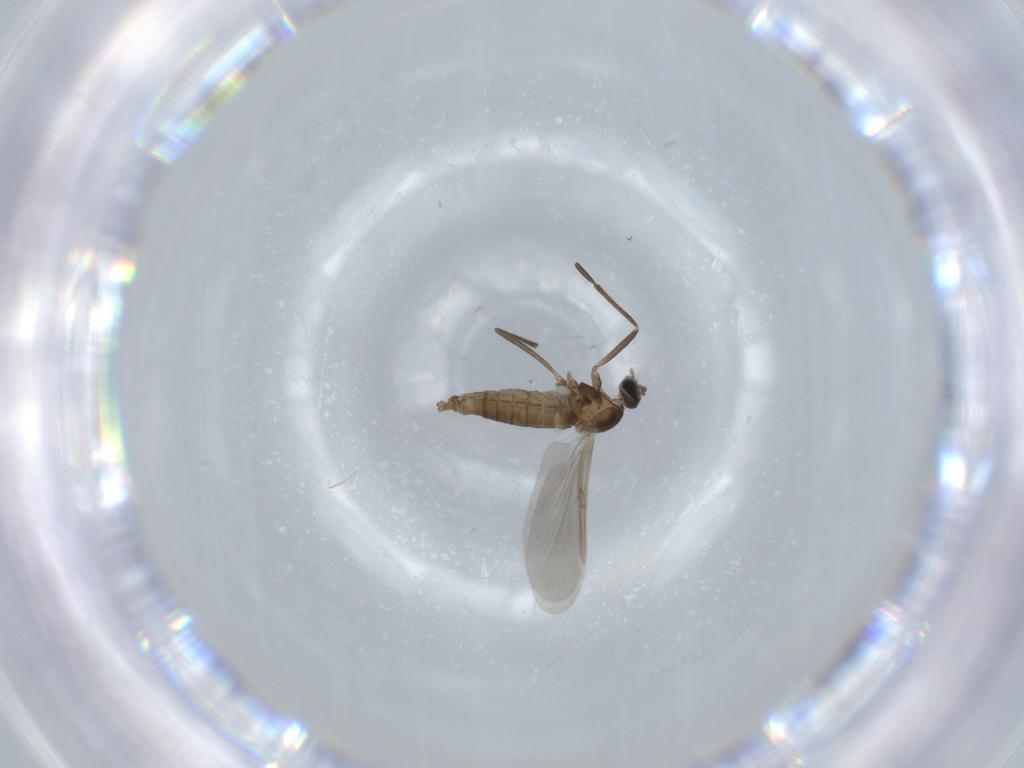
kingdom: Animalia
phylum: Arthropoda
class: Insecta
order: Diptera
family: Cecidomyiidae
